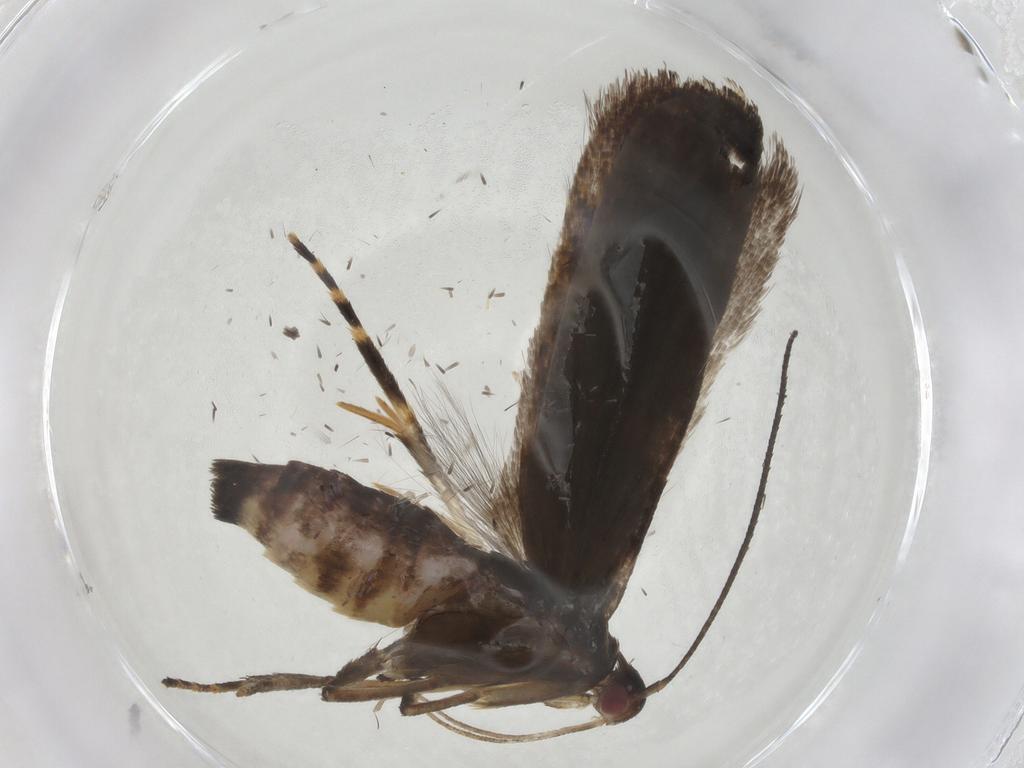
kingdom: Animalia
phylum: Arthropoda
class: Insecta
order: Lepidoptera
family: Gelechiidae
